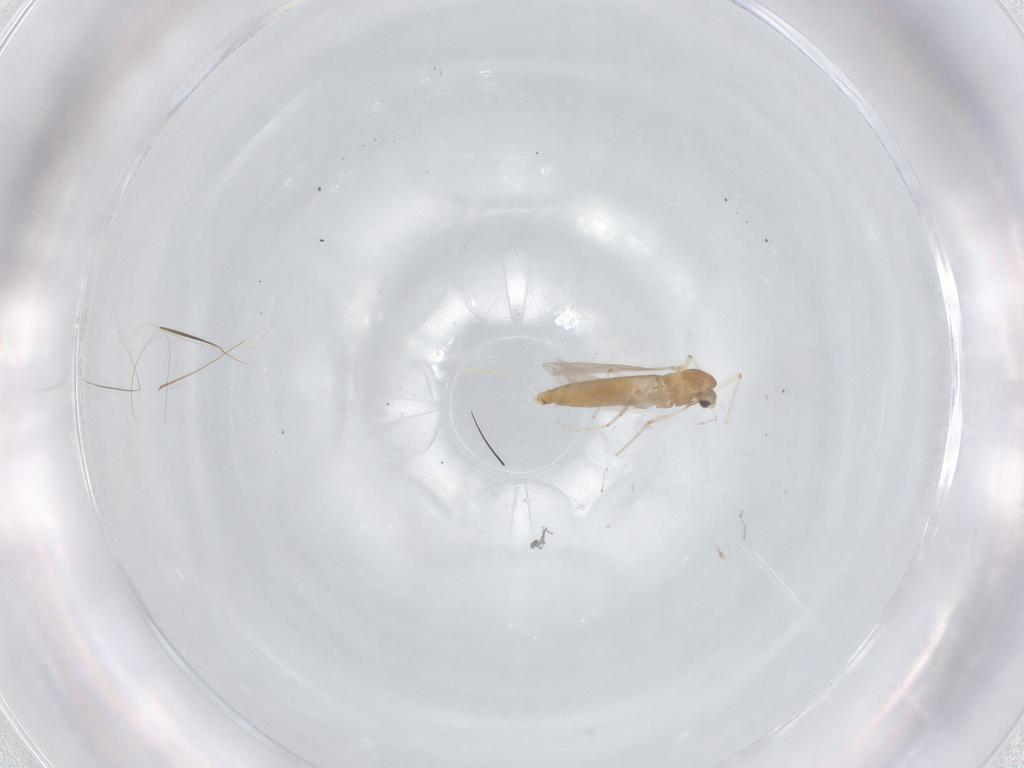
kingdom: Animalia
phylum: Arthropoda
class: Insecta
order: Diptera
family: Chironomidae
